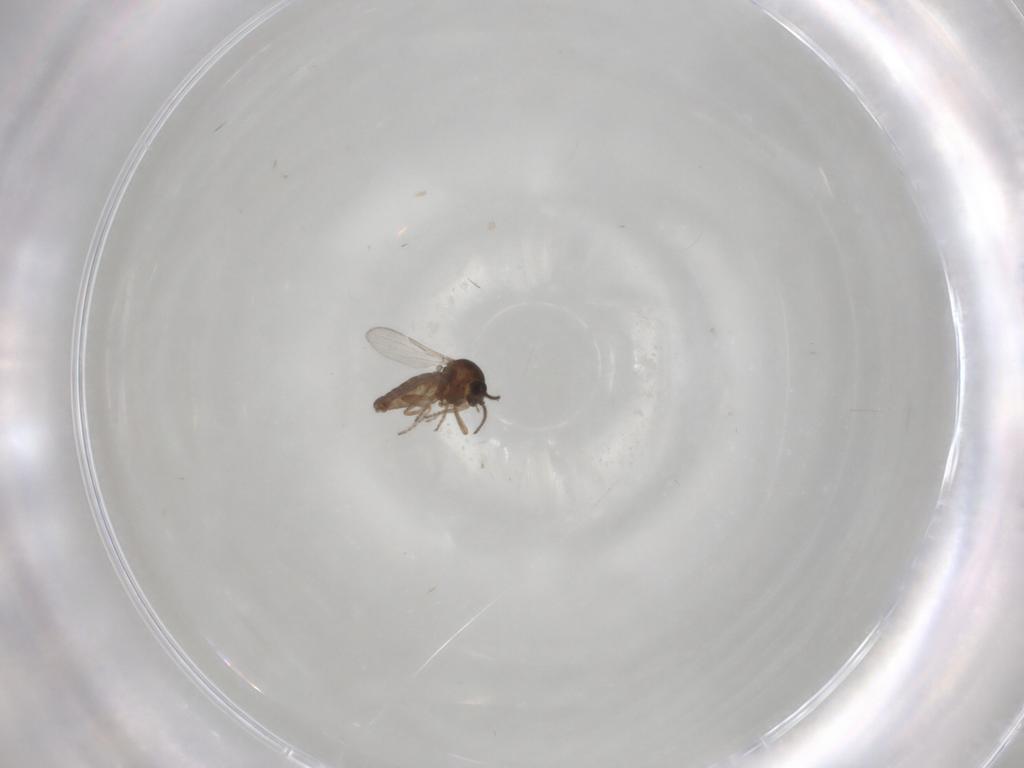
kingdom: Animalia
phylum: Arthropoda
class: Insecta
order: Diptera
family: Ceratopogonidae
